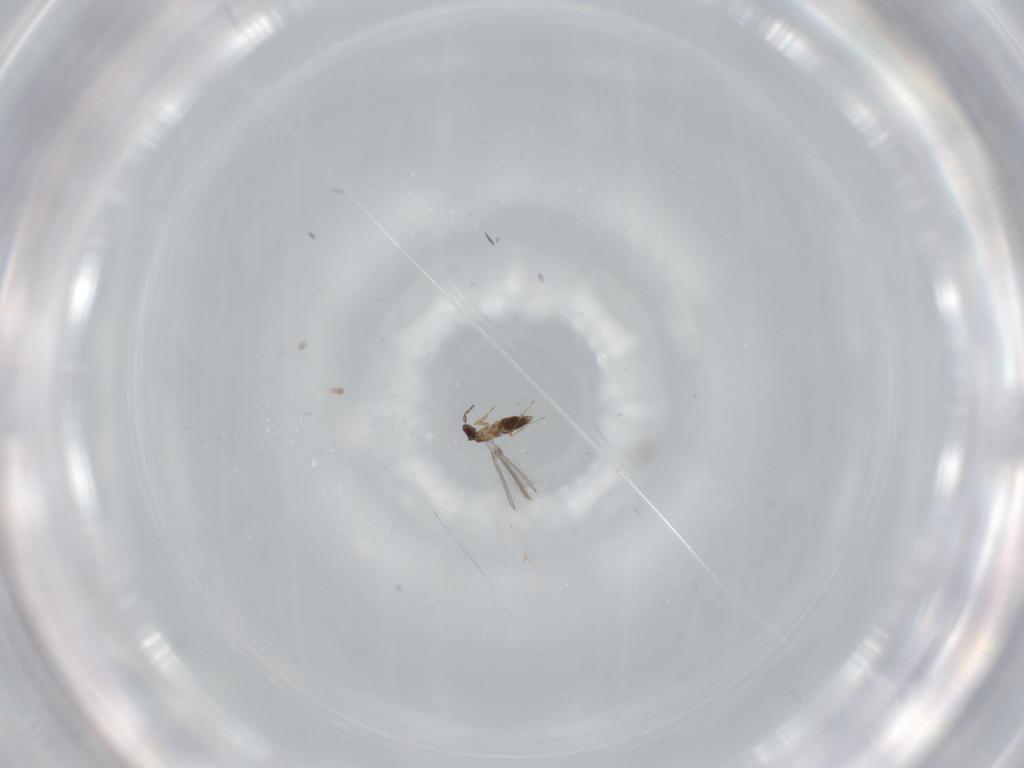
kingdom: Animalia
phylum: Arthropoda
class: Insecta
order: Hymenoptera
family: Mymaridae
